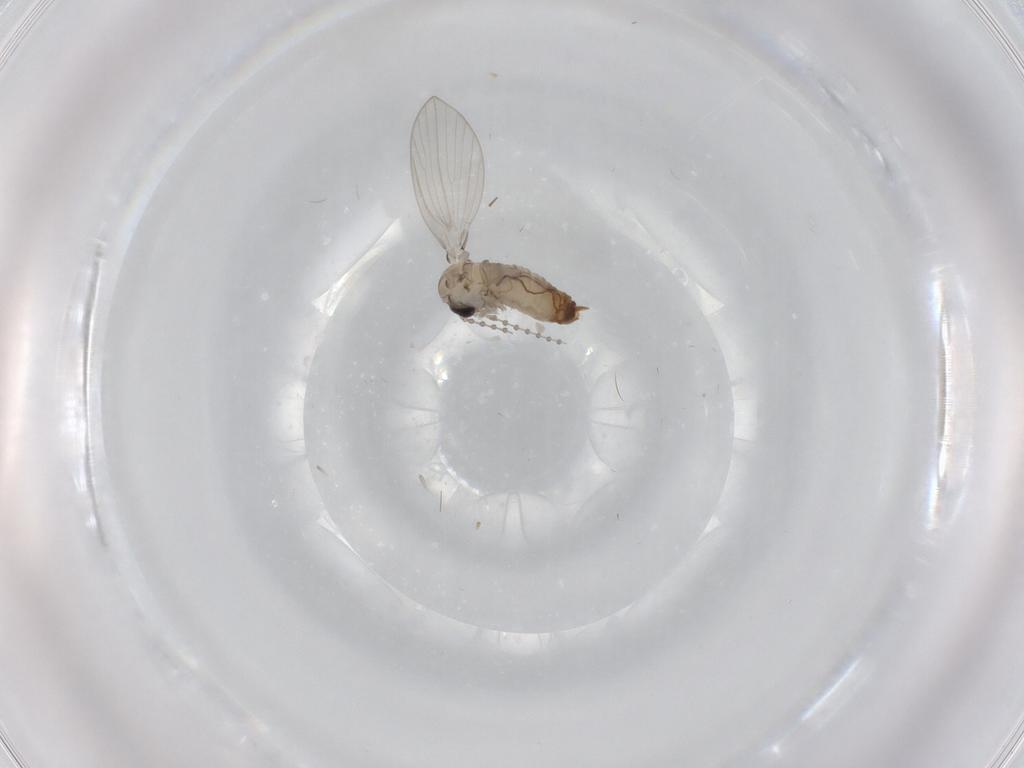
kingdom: Animalia
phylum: Arthropoda
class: Insecta
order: Diptera
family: Psychodidae
